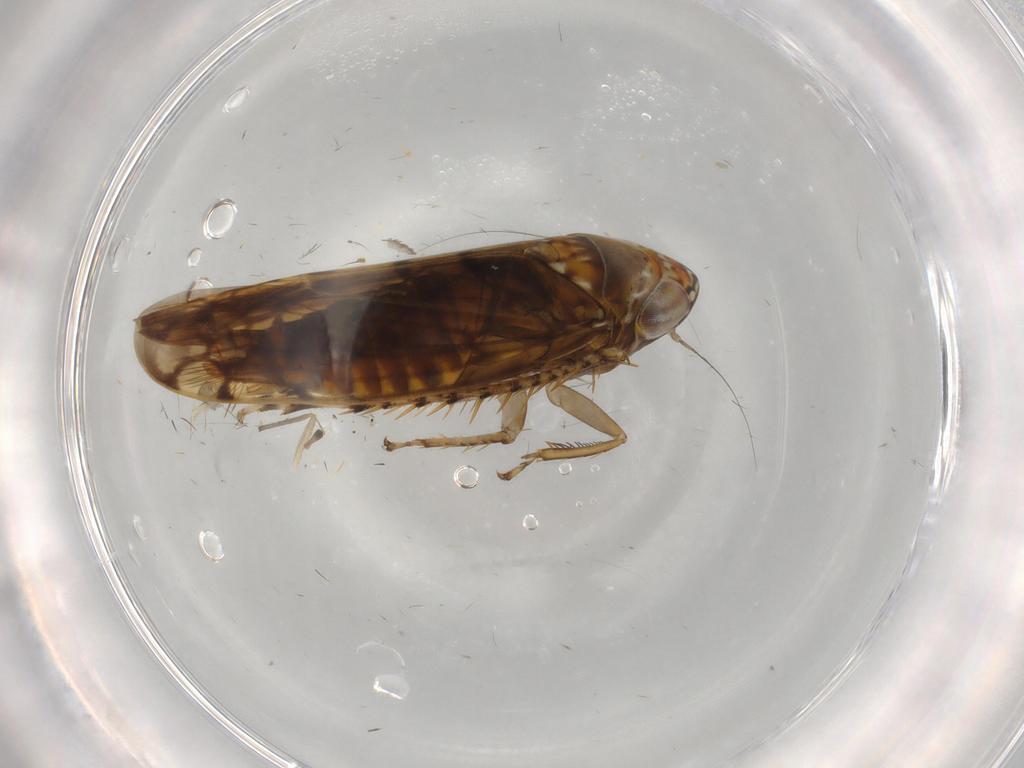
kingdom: Animalia
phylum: Arthropoda
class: Insecta
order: Hemiptera
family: Cicadellidae
